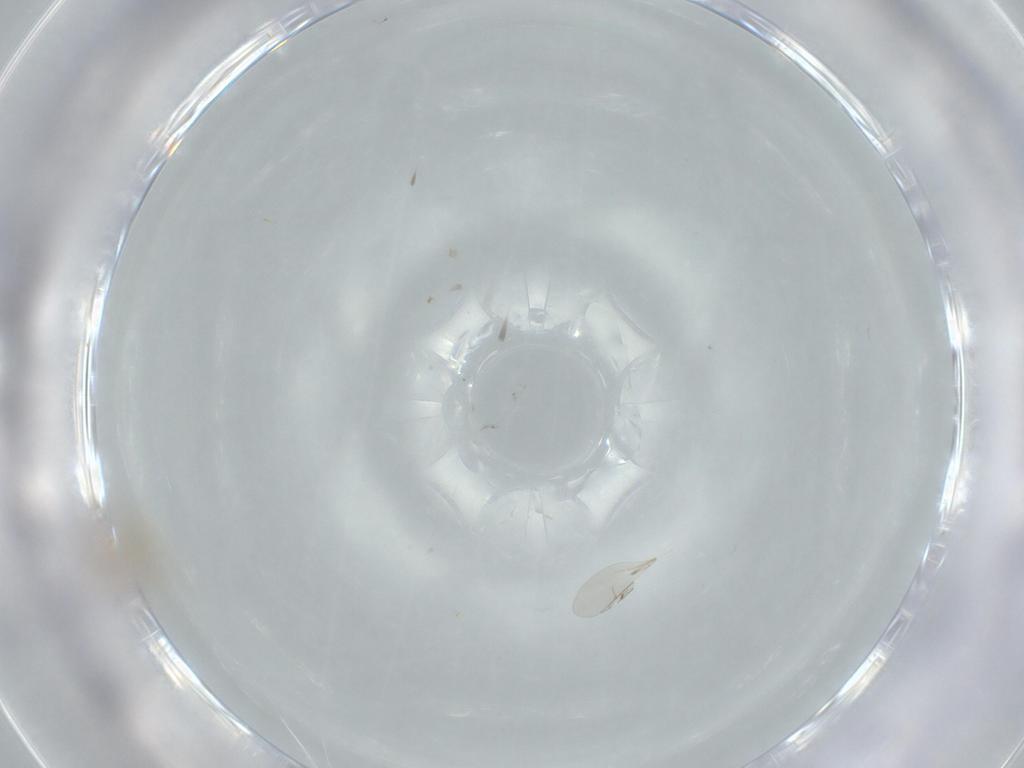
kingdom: Animalia
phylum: Arthropoda
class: Insecta
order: Diptera
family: Phoridae
